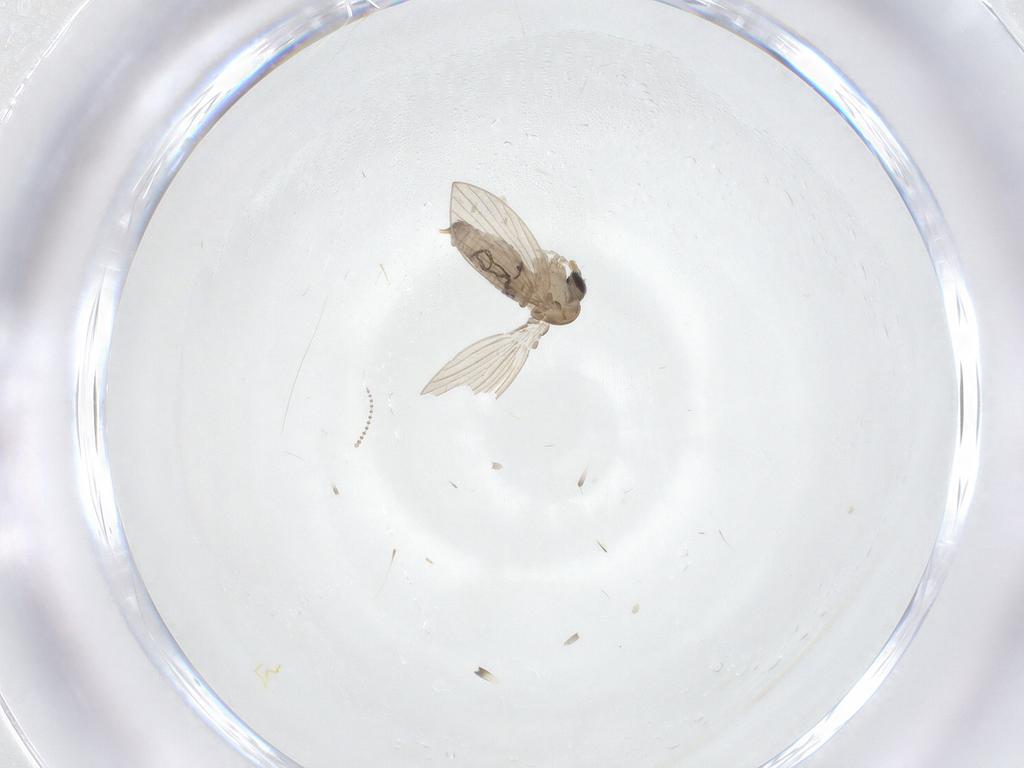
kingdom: Animalia
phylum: Arthropoda
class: Insecta
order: Diptera
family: Psychodidae
